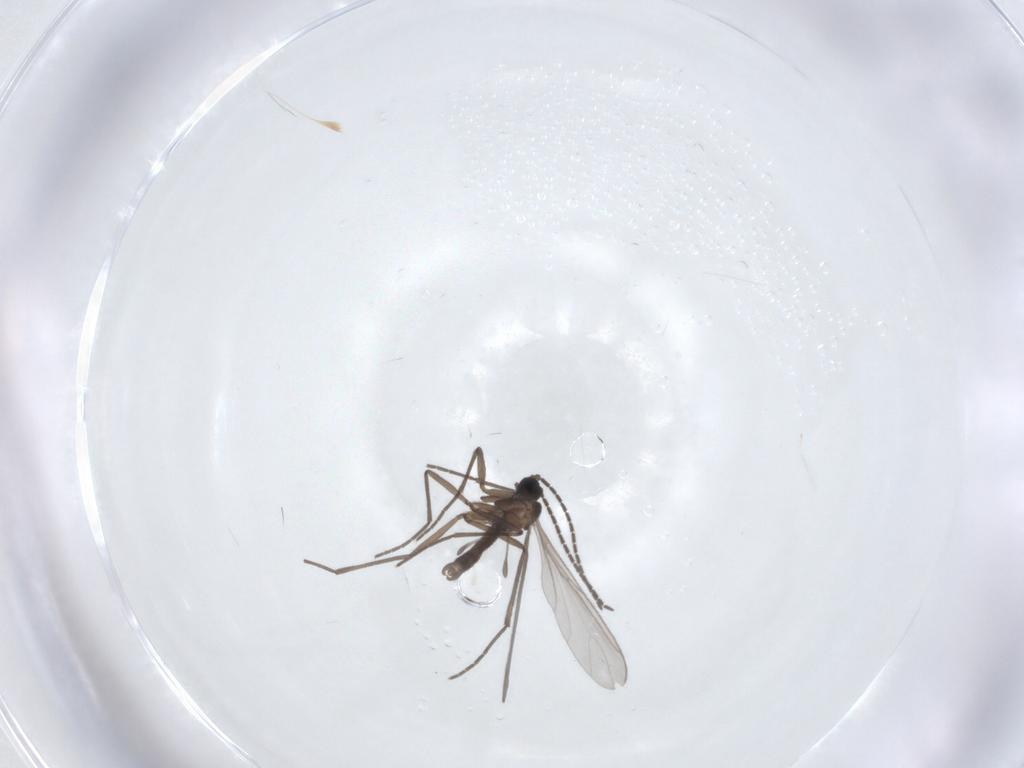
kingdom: Animalia
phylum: Arthropoda
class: Insecta
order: Diptera
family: Sciaridae
